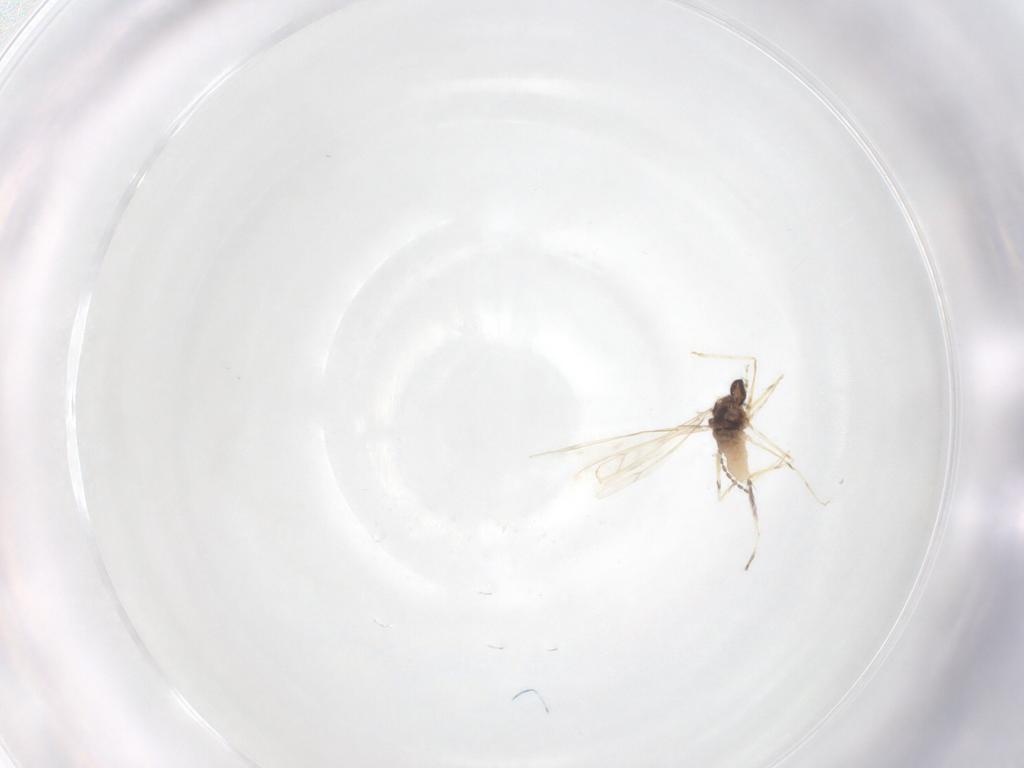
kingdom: Animalia
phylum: Arthropoda
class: Insecta
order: Diptera
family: Cecidomyiidae
